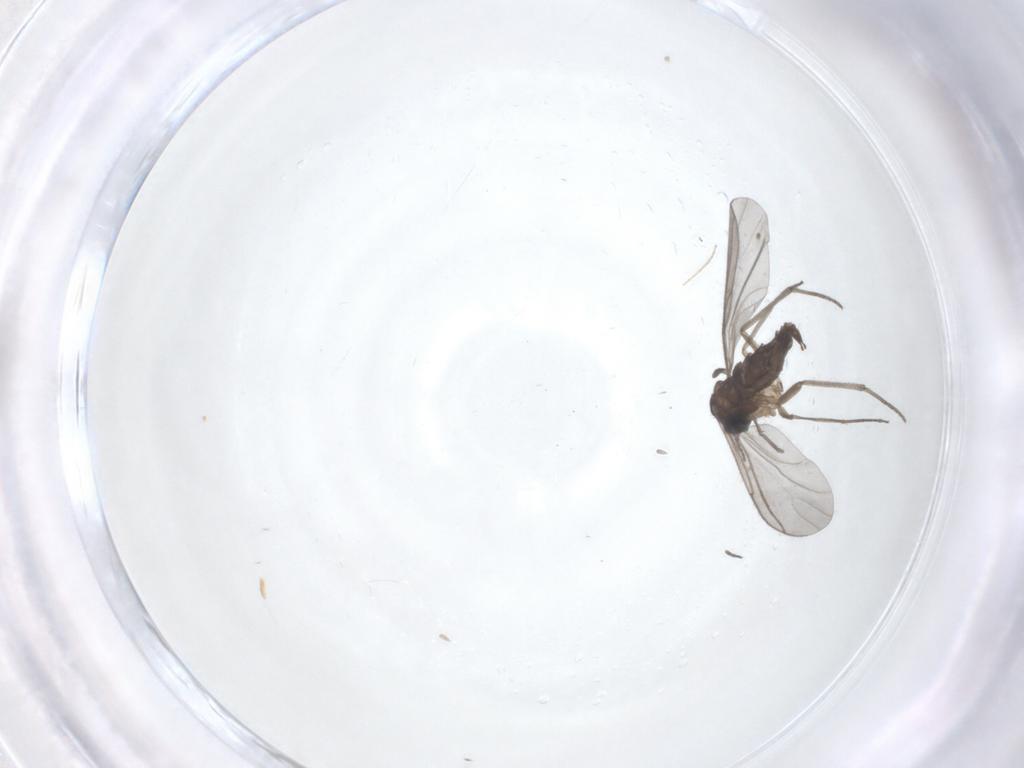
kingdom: Animalia
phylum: Arthropoda
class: Insecta
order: Diptera
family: Sciaridae
